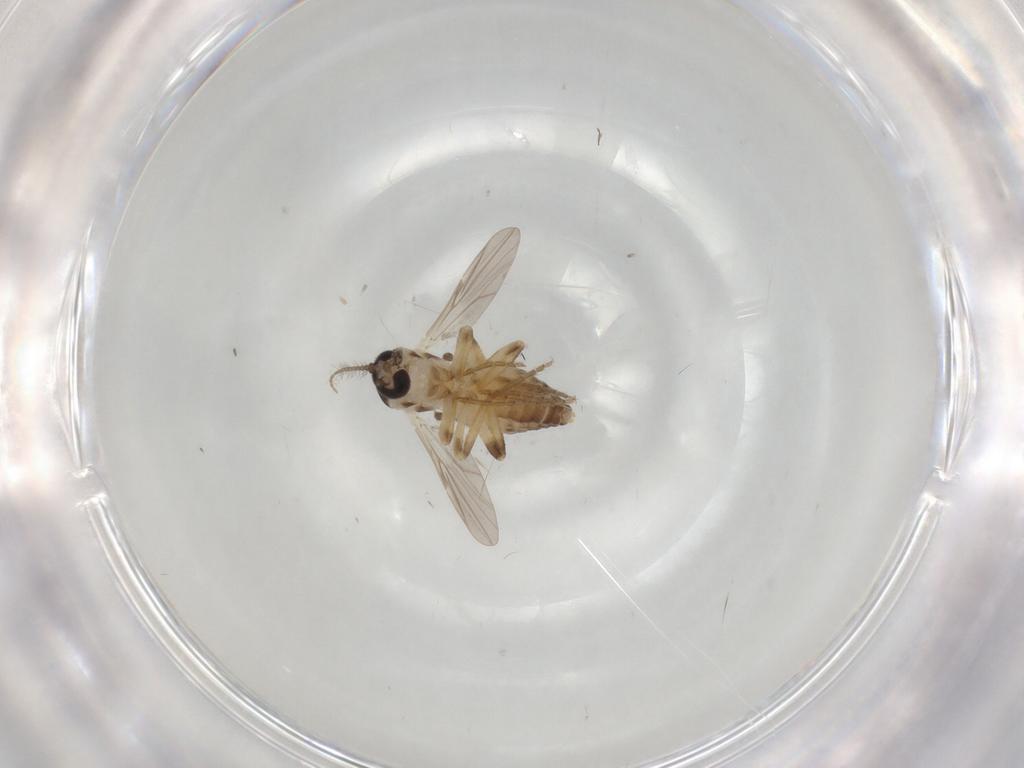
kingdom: Animalia
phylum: Arthropoda
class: Insecta
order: Diptera
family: Ceratopogonidae
